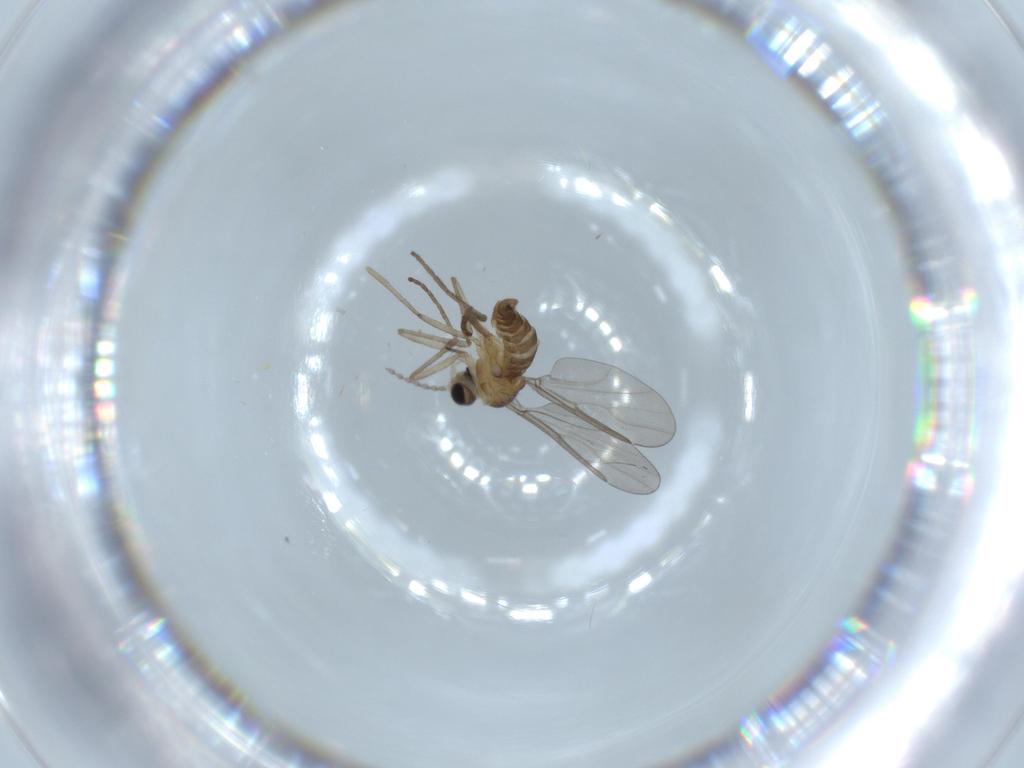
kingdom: Animalia
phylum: Arthropoda
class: Insecta
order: Diptera
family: Cecidomyiidae
